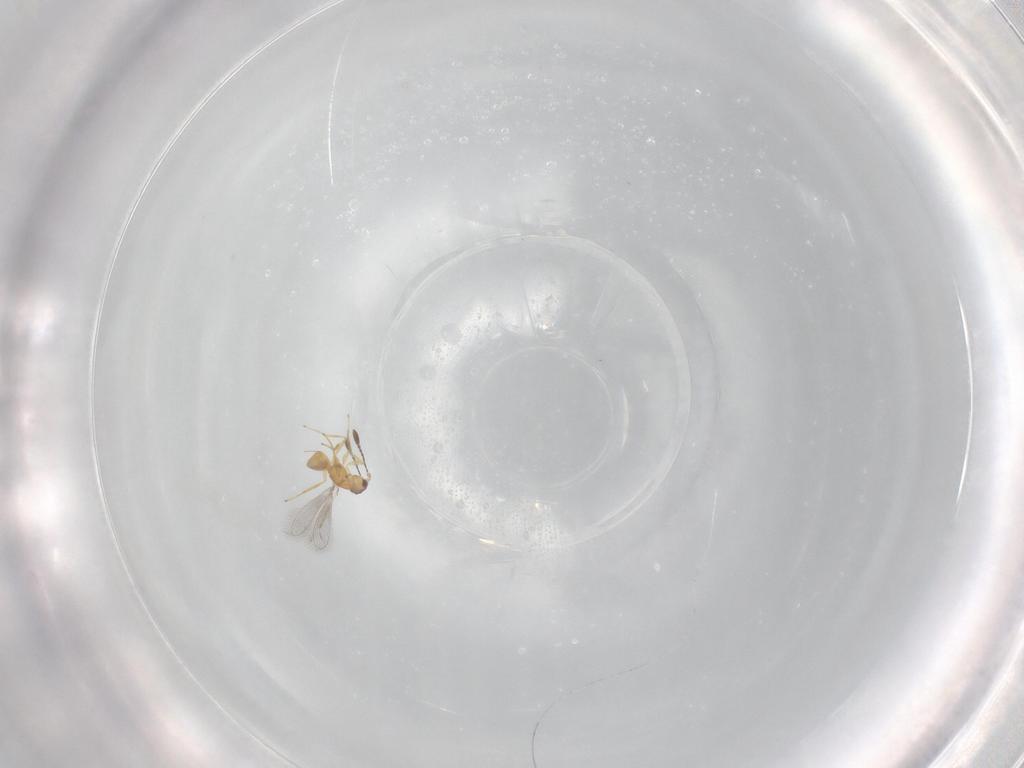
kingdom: Animalia
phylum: Arthropoda
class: Insecta
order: Hymenoptera
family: Mymaridae
